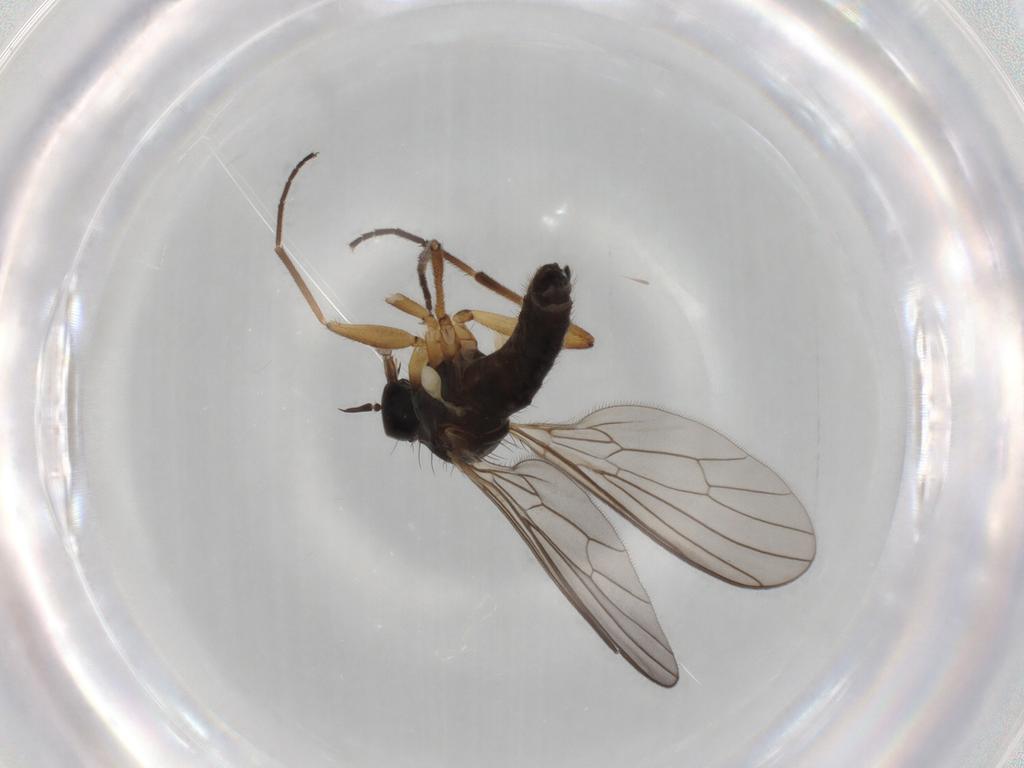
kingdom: Animalia
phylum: Arthropoda
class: Insecta
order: Diptera
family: Empididae
